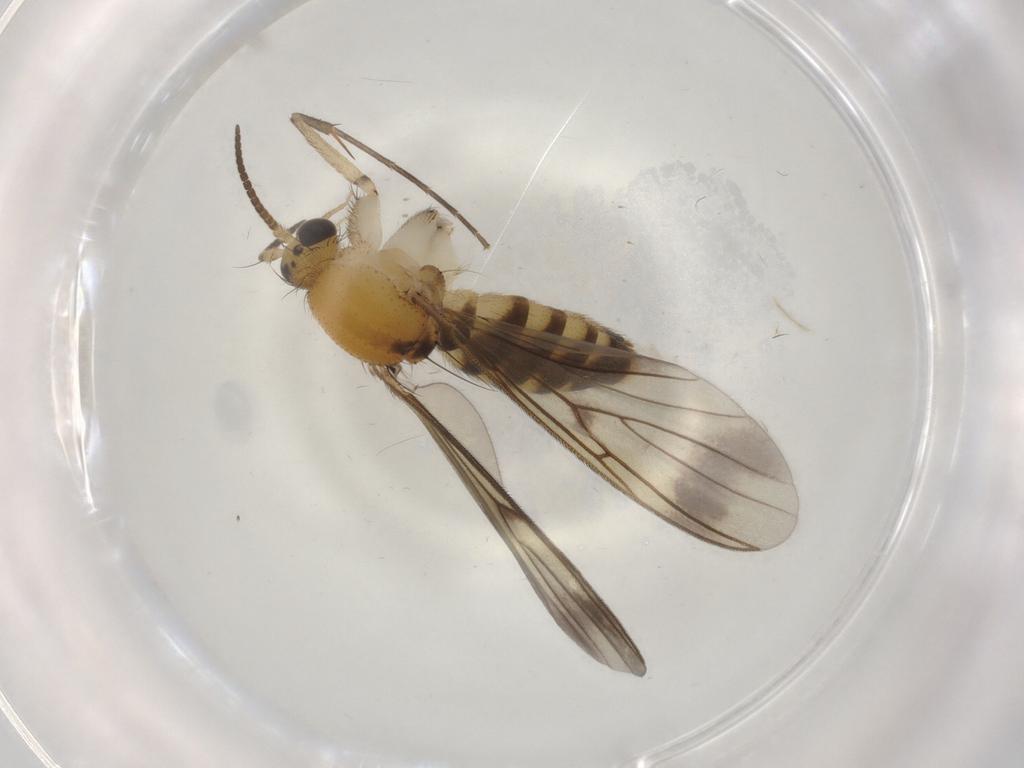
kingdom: Animalia
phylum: Arthropoda
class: Insecta
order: Diptera
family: Mycetophilidae
